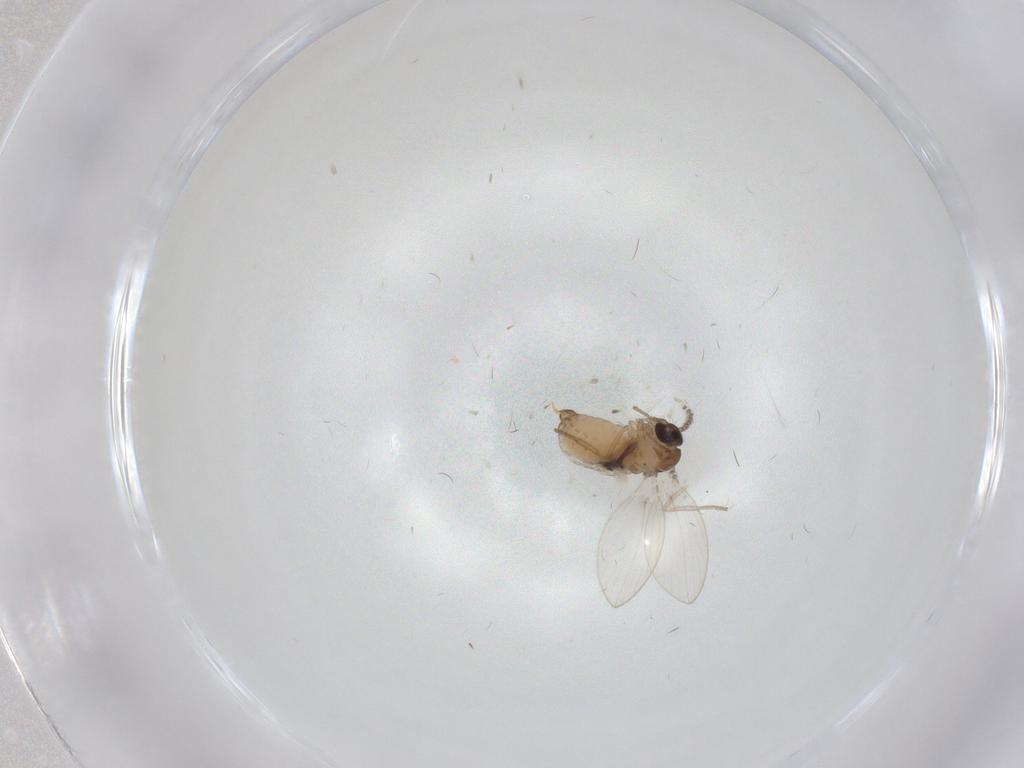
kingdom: Animalia
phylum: Arthropoda
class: Insecta
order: Diptera
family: Psychodidae
